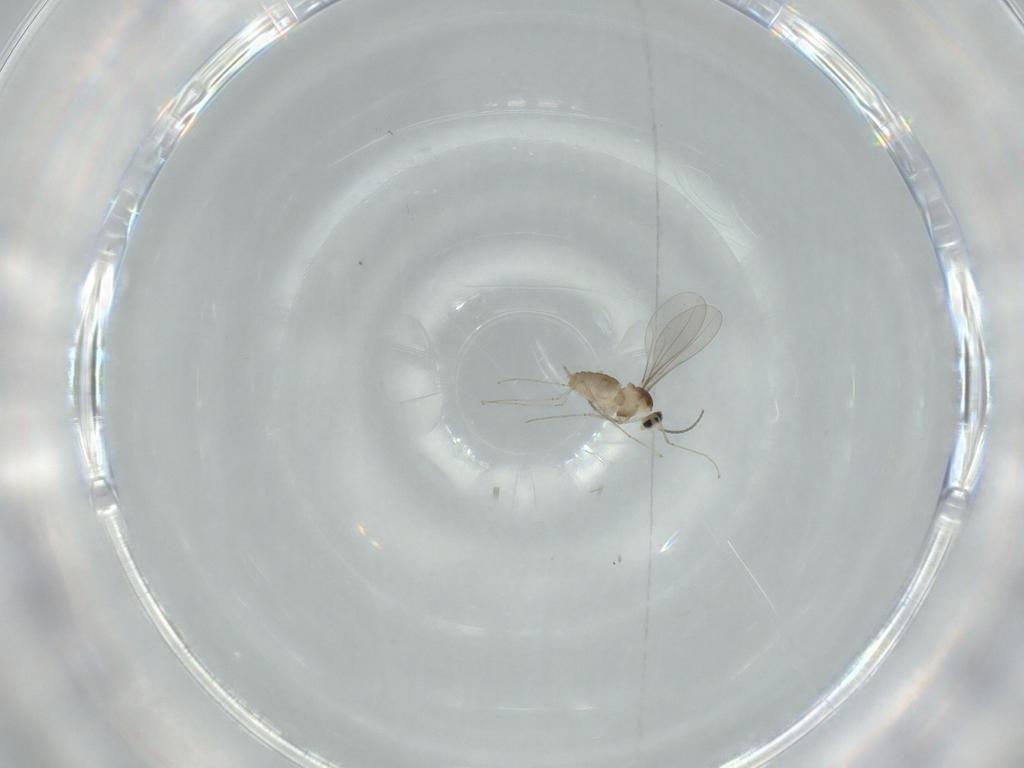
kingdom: Animalia
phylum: Arthropoda
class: Insecta
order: Diptera
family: Cecidomyiidae
